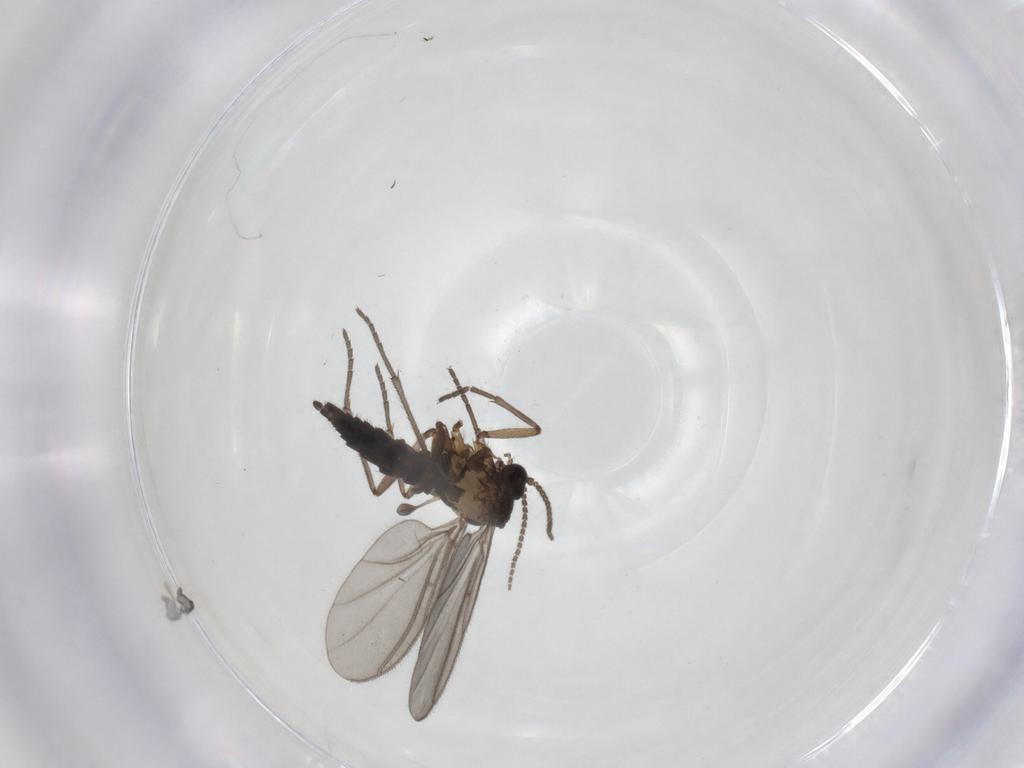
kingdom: Animalia
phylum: Arthropoda
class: Insecta
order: Diptera
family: Sciaridae
